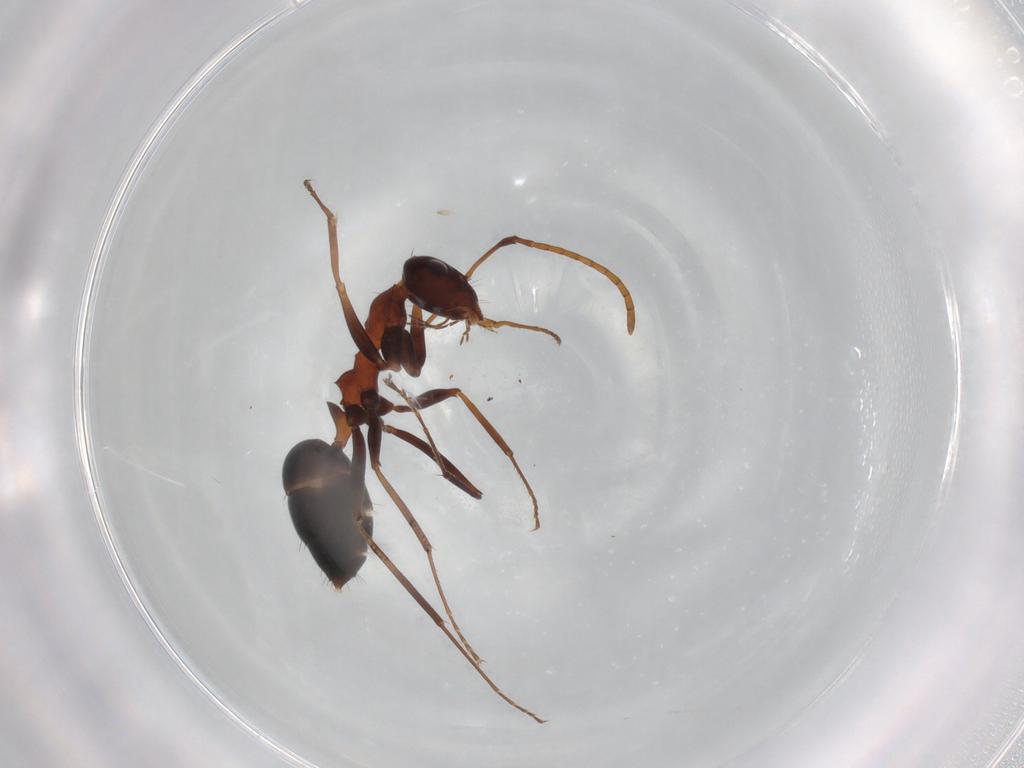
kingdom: Animalia
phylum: Arthropoda
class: Insecta
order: Hymenoptera
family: Formicidae
